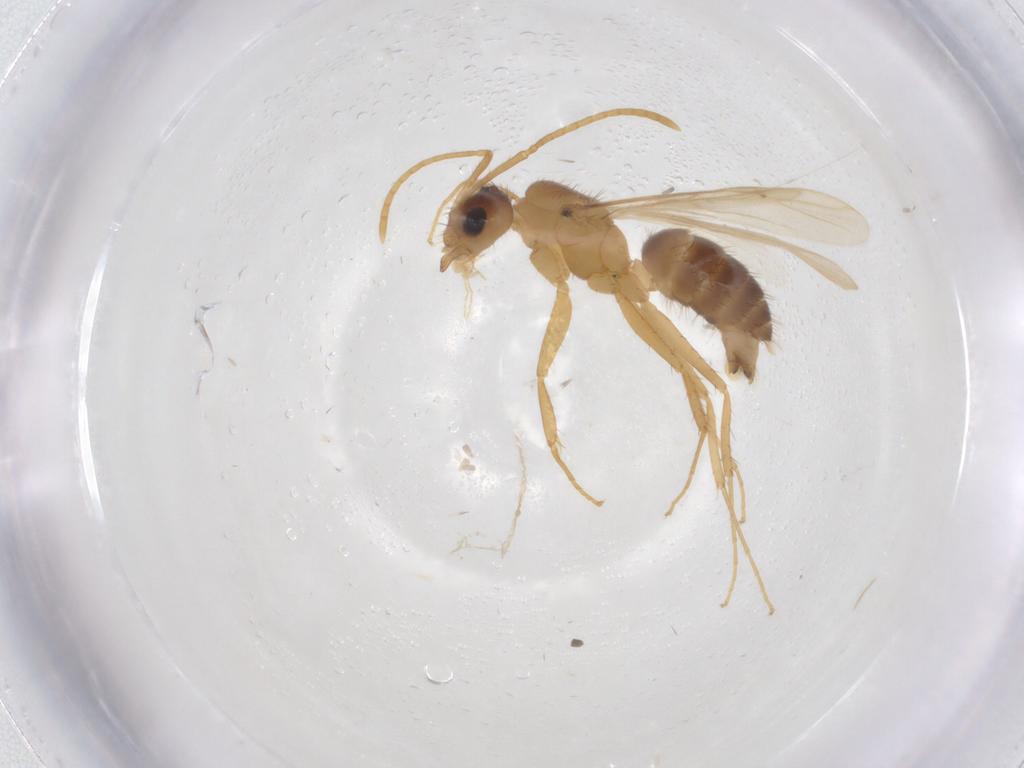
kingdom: Animalia
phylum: Arthropoda
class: Insecta
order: Hymenoptera
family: Formicidae
